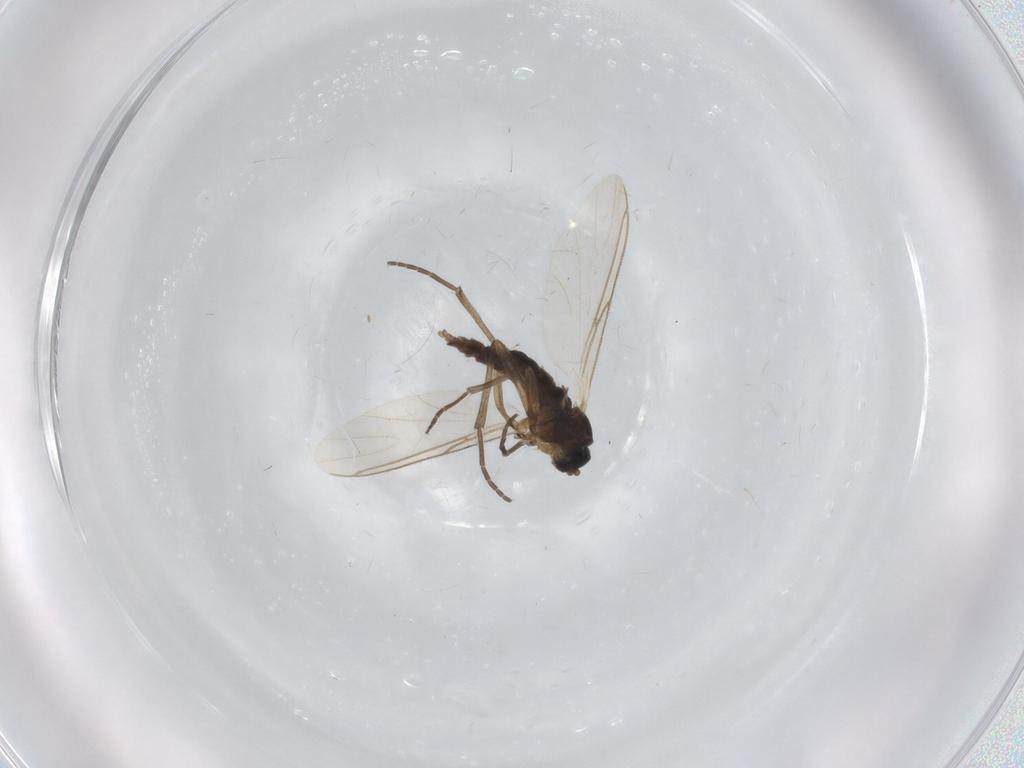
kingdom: Animalia
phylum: Arthropoda
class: Insecta
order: Diptera
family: Sciaridae
